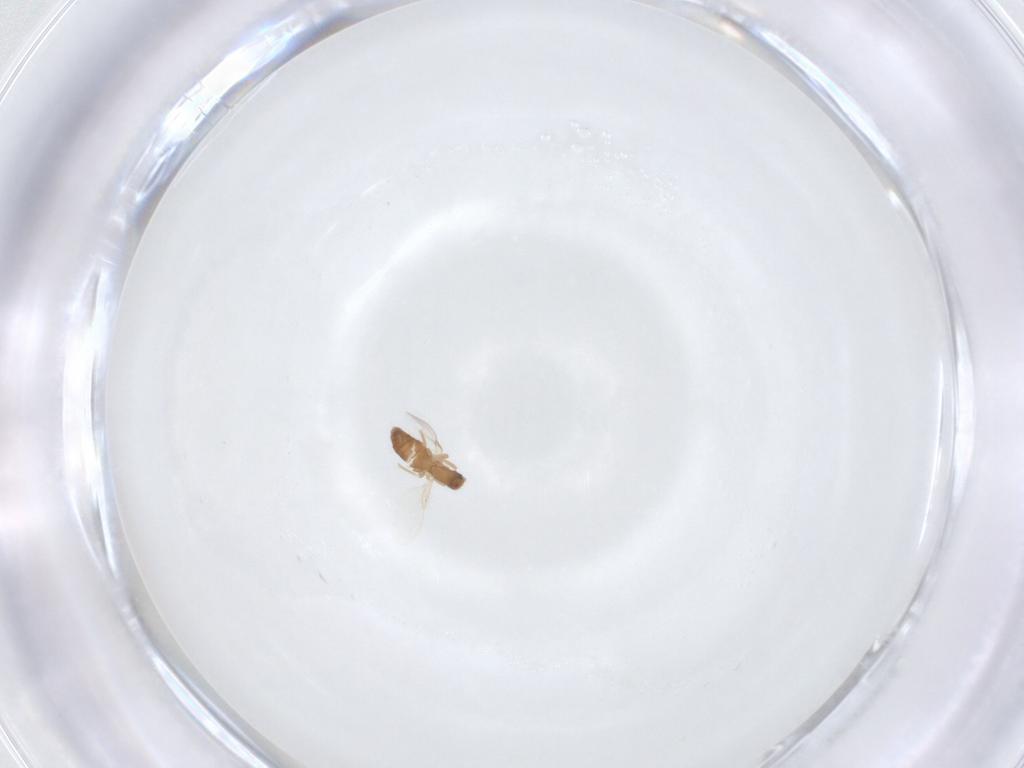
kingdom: Animalia
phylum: Arthropoda
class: Insecta
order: Diptera
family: Phoridae
